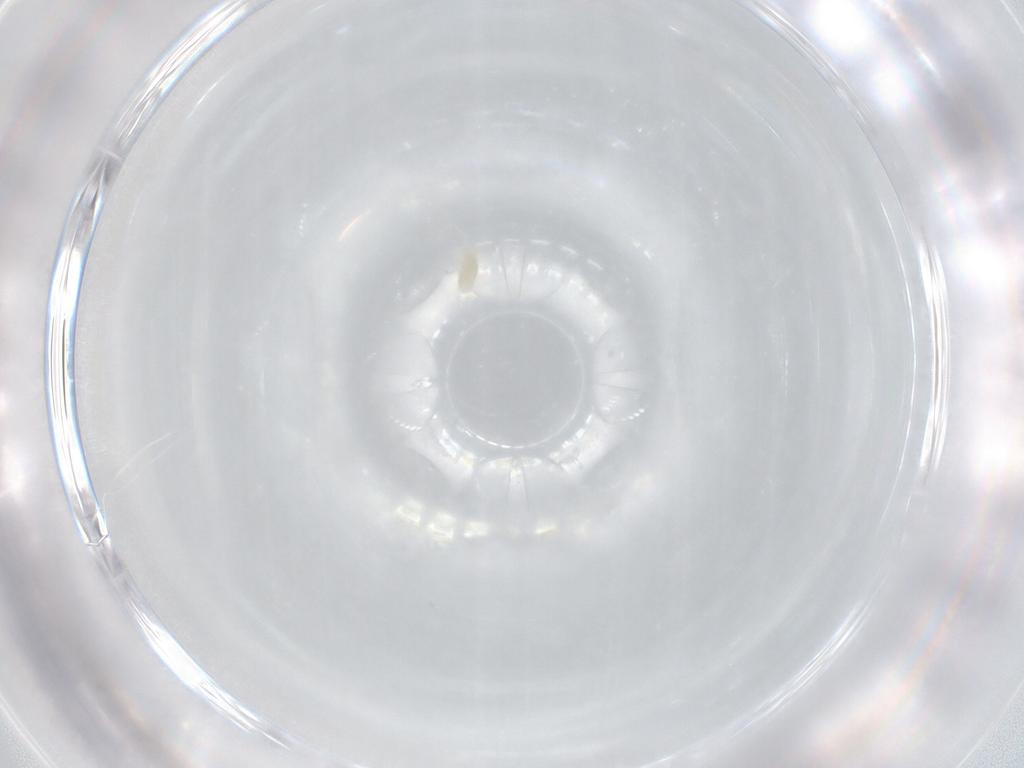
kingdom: Animalia
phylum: Arthropoda
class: Arachnida
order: Trombidiformes
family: Eupodidae
